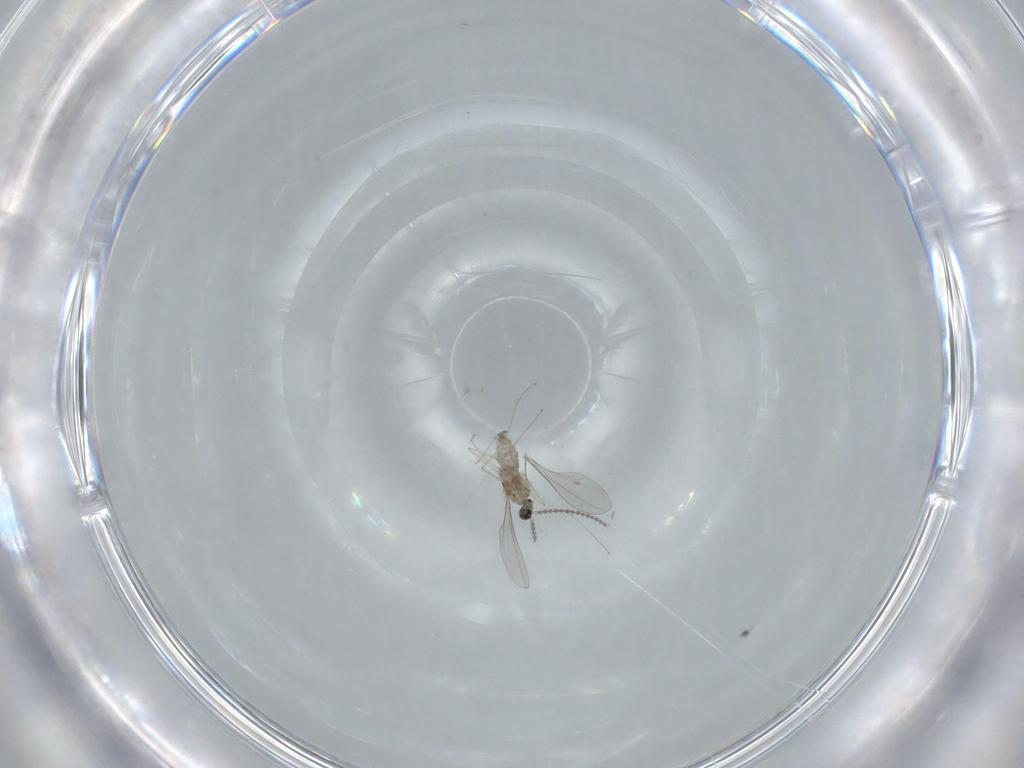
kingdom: Animalia
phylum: Arthropoda
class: Insecta
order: Diptera
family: Cecidomyiidae
